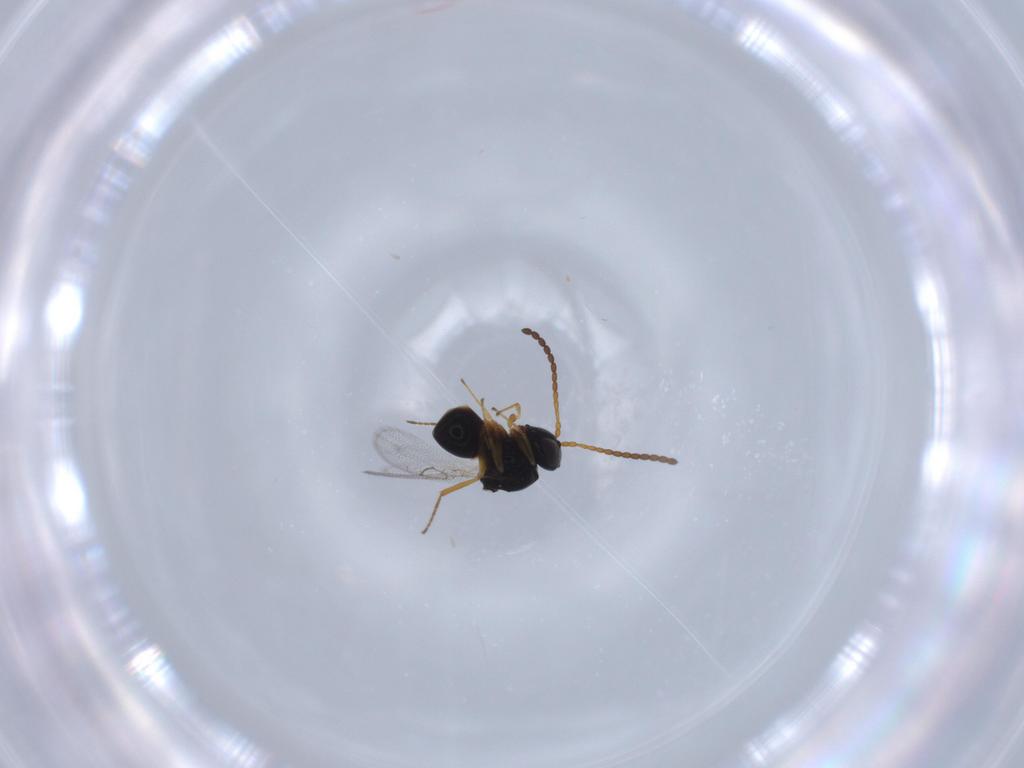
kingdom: Animalia
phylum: Arthropoda
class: Insecta
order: Hymenoptera
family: Figitidae
